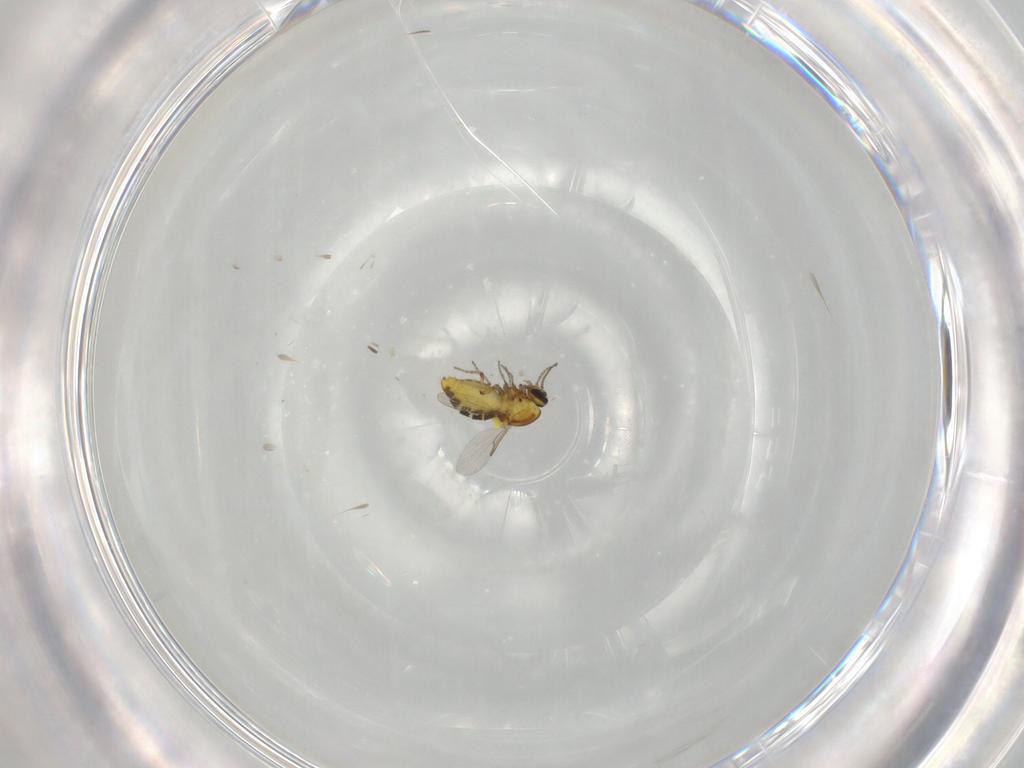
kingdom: Animalia
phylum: Arthropoda
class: Insecta
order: Diptera
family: Ceratopogonidae
